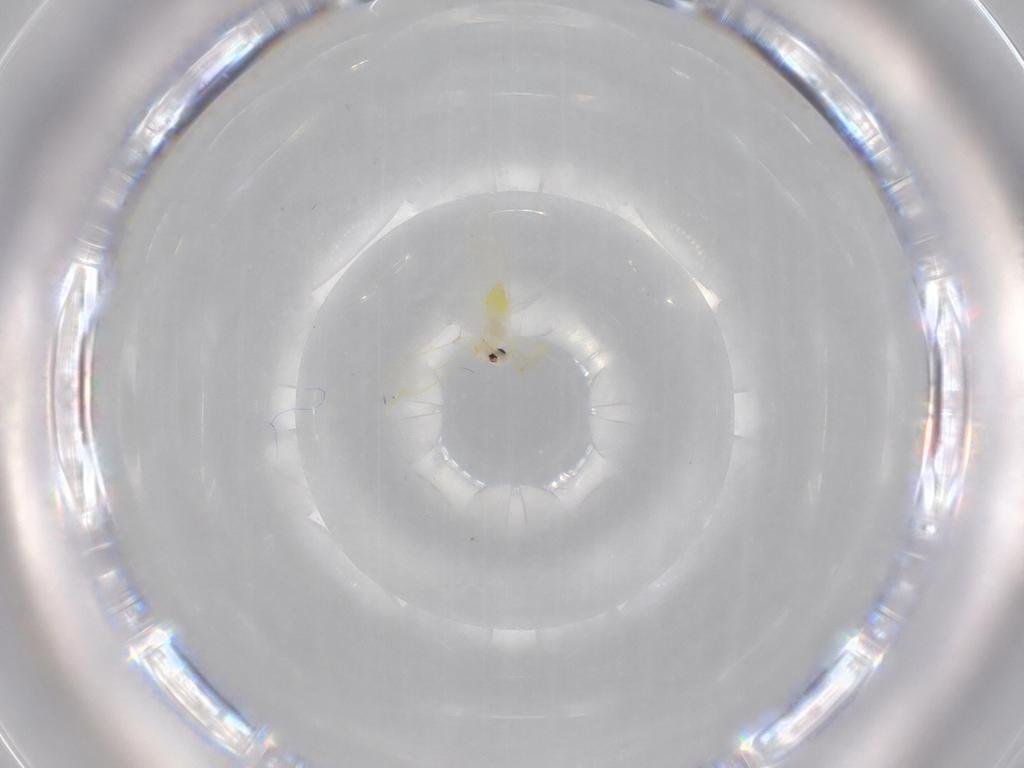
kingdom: Animalia
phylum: Arthropoda
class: Insecta
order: Hemiptera
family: Aleyrodidae
